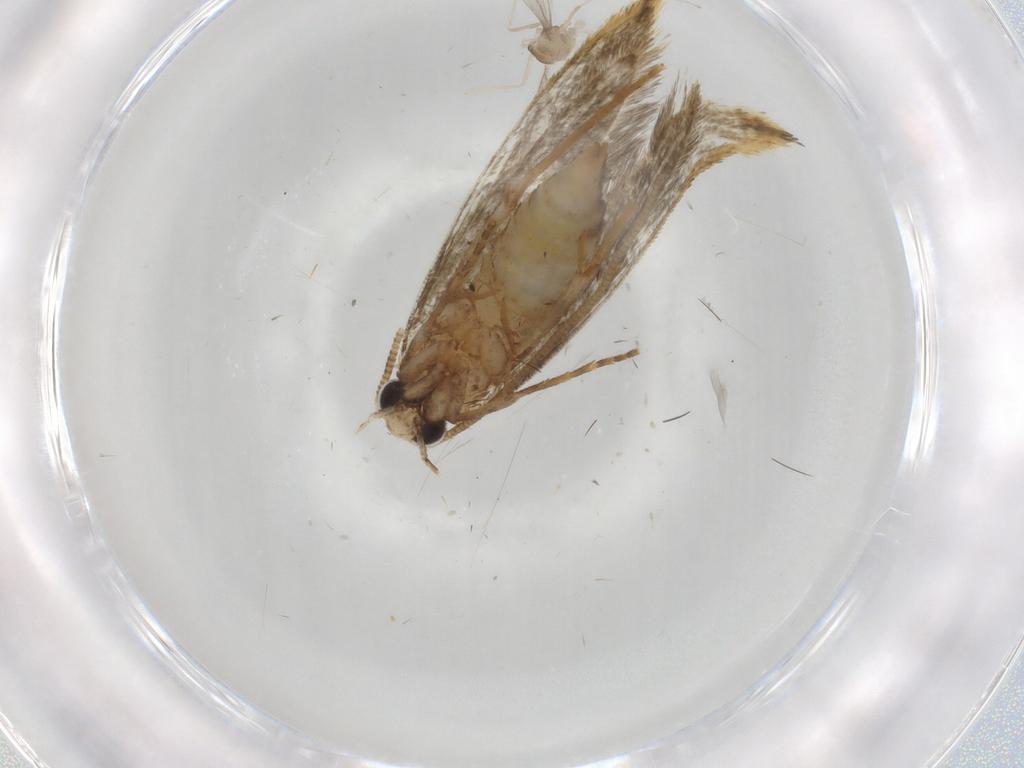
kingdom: Animalia
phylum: Arthropoda
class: Insecta
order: Lepidoptera
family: Tineidae
